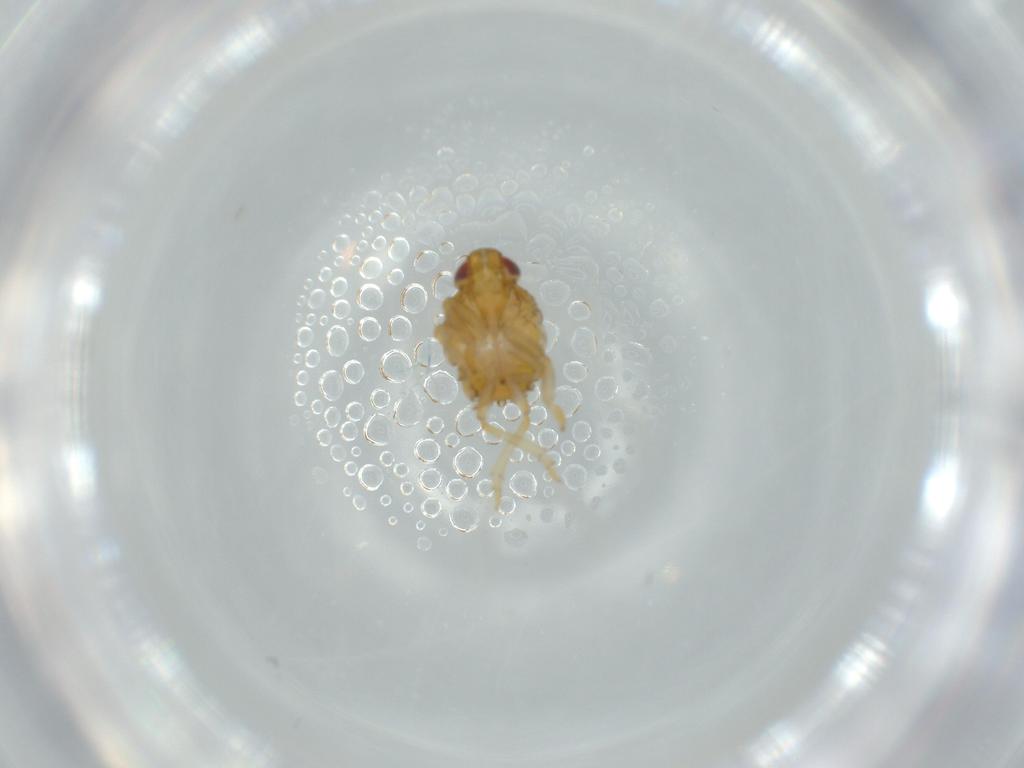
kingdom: Animalia
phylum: Arthropoda
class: Insecta
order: Hemiptera
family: Issidae
